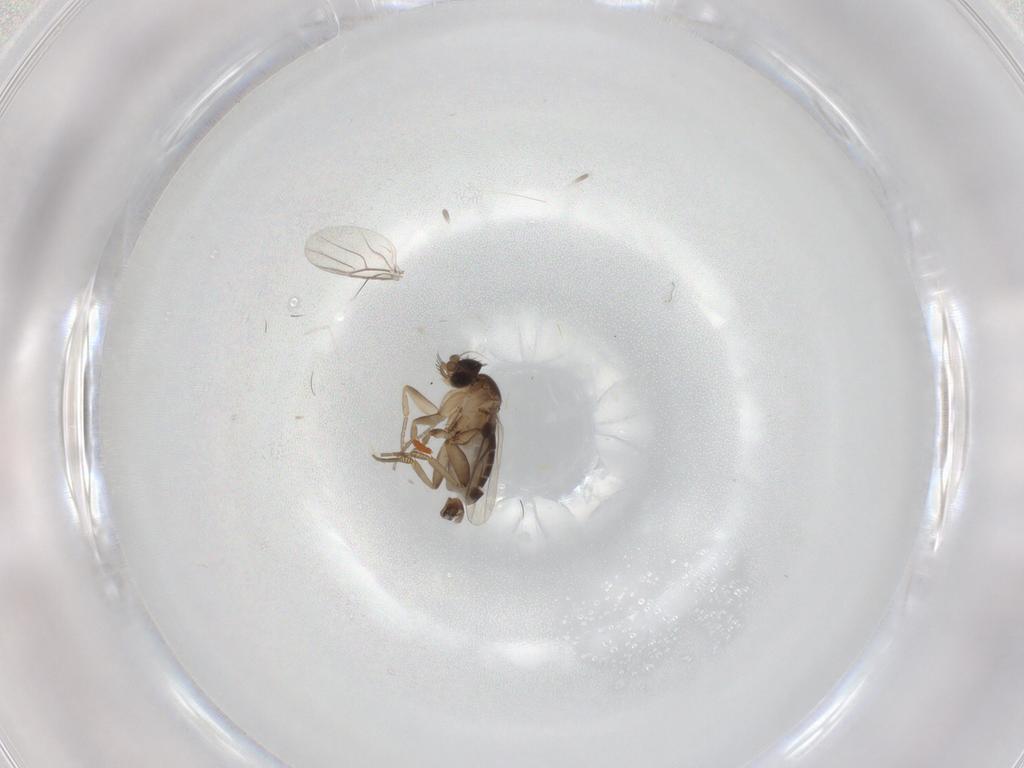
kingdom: Animalia
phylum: Arthropoda
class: Insecta
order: Diptera
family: Phoridae
